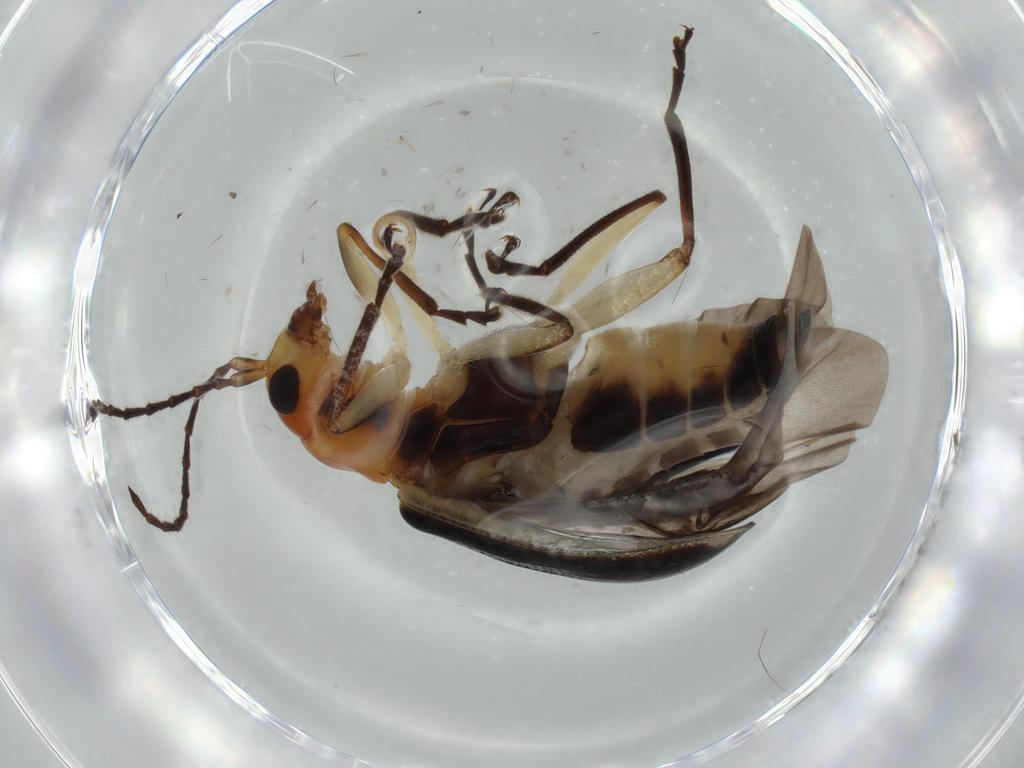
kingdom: Animalia
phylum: Arthropoda
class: Insecta
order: Coleoptera
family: Chrysomelidae
